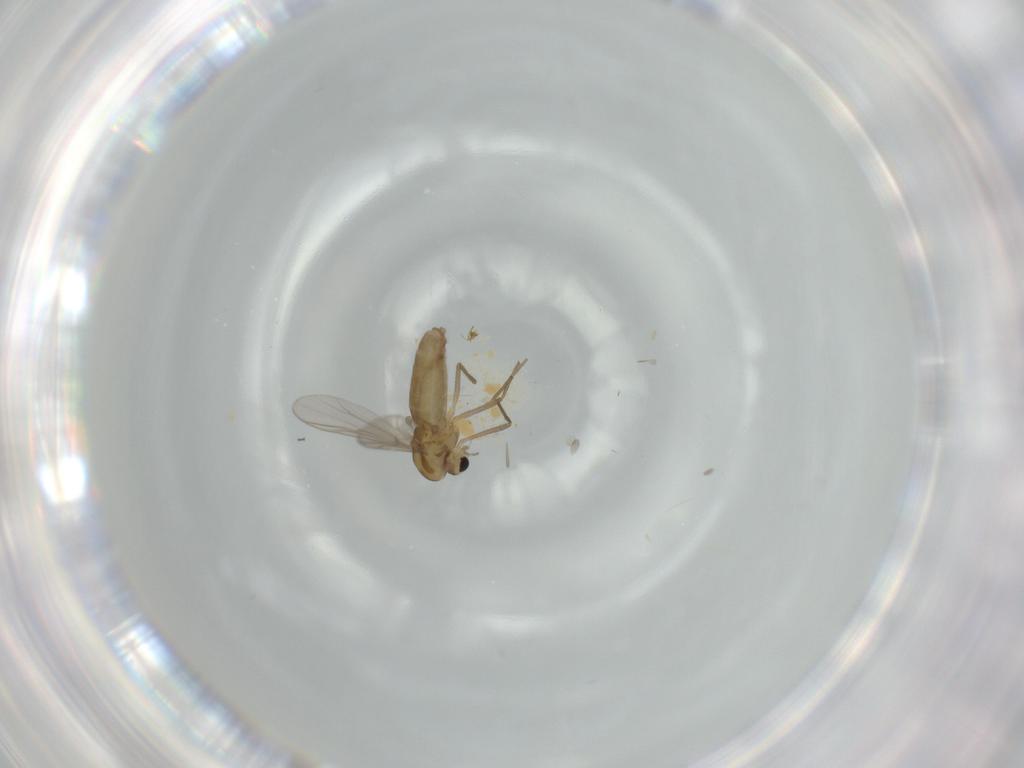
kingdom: Animalia
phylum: Arthropoda
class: Insecta
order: Diptera
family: Chironomidae
